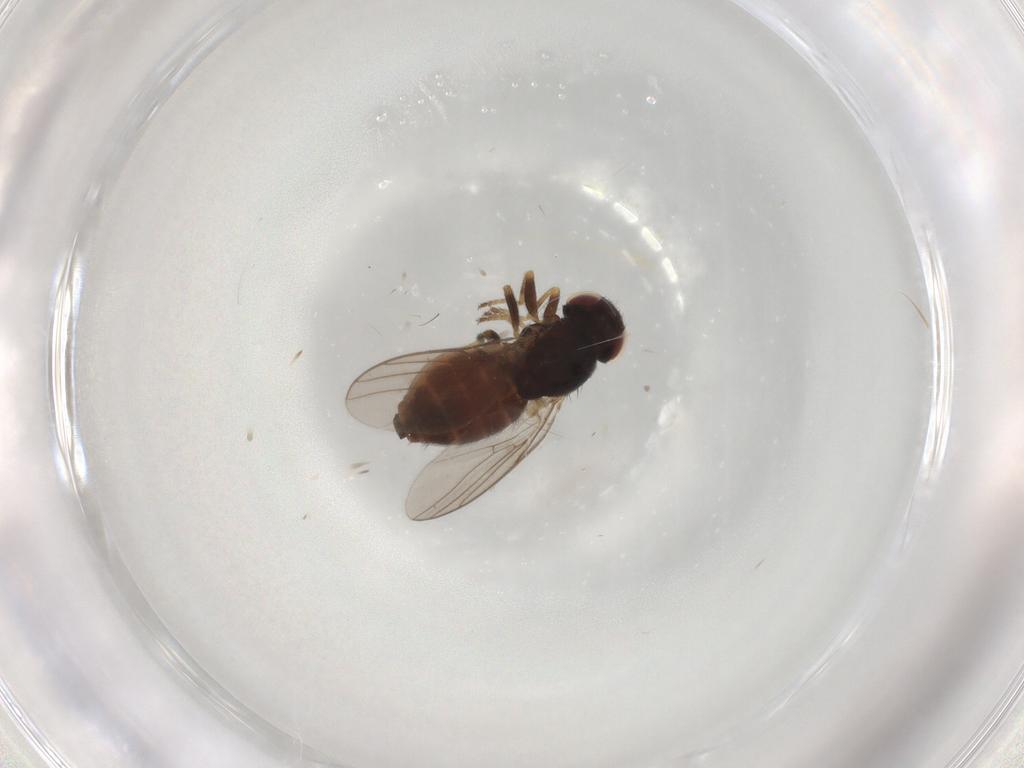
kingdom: Animalia
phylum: Arthropoda
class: Insecta
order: Diptera
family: Chloropidae
